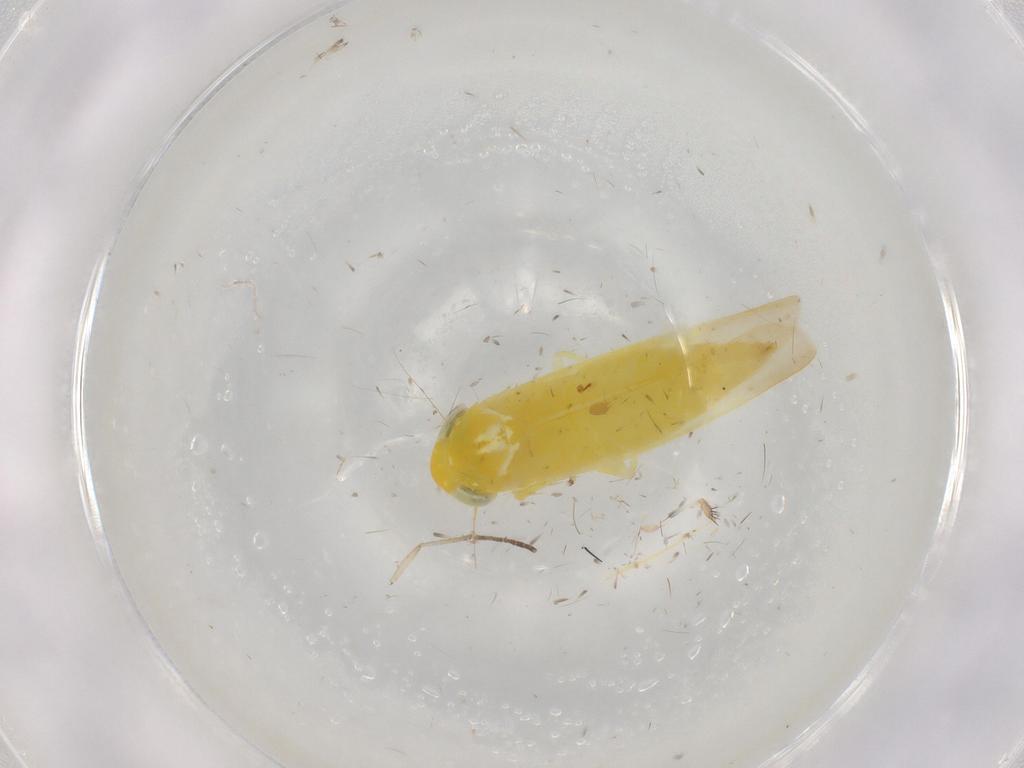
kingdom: Animalia
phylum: Arthropoda
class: Insecta
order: Hemiptera
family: Cicadellidae
